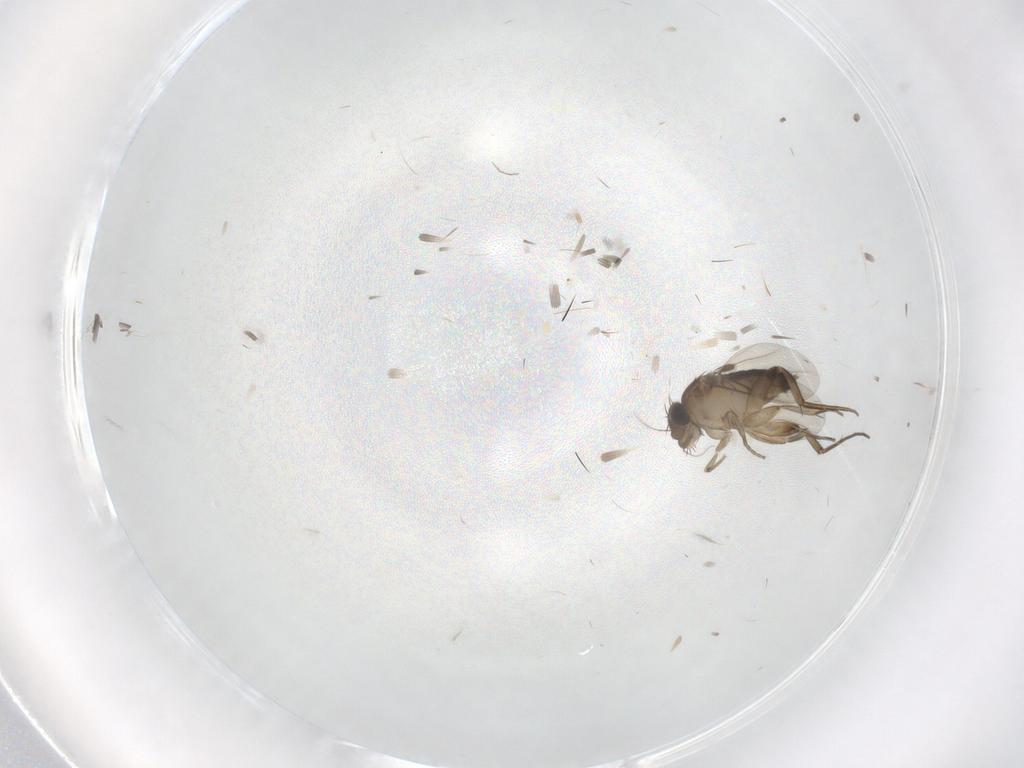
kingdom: Animalia
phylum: Arthropoda
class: Insecta
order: Diptera
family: Phoridae
